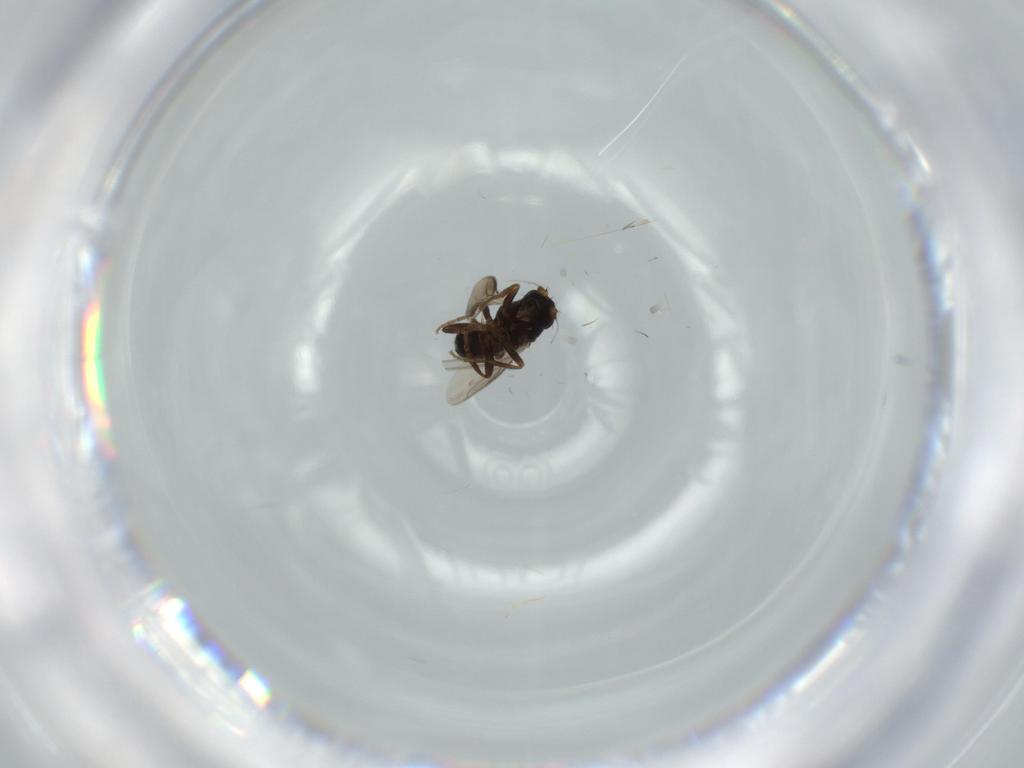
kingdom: Animalia
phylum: Arthropoda
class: Insecta
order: Diptera
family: Sphaeroceridae
